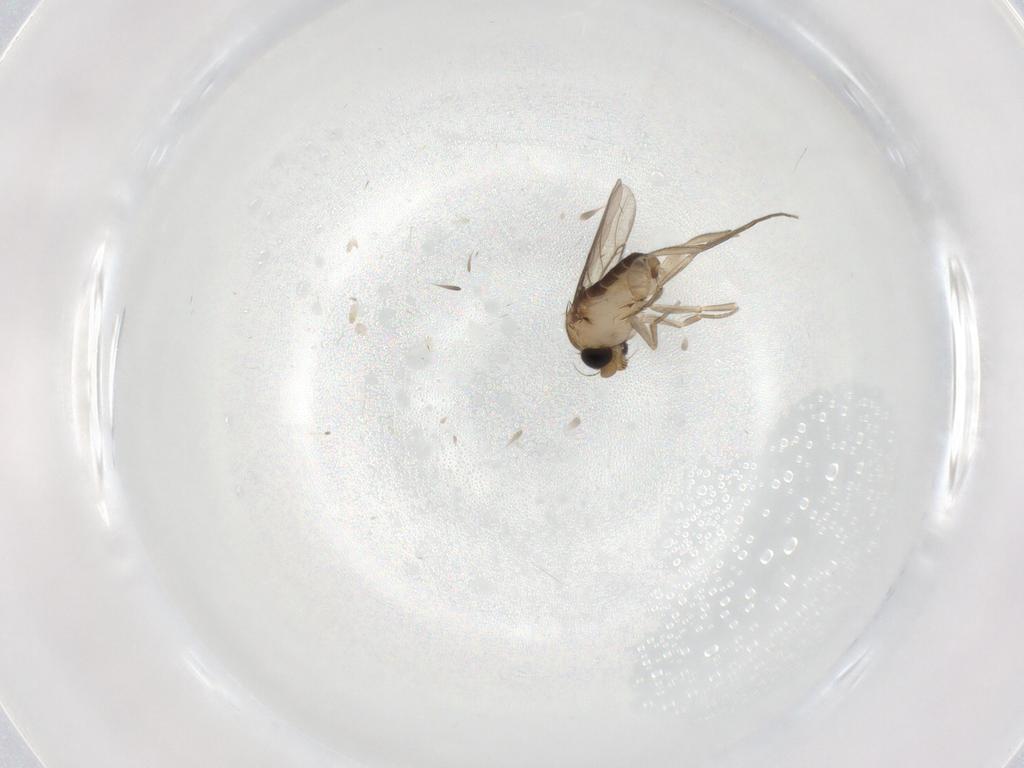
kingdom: Animalia
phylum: Arthropoda
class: Insecta
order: Diptera
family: Phoridae
